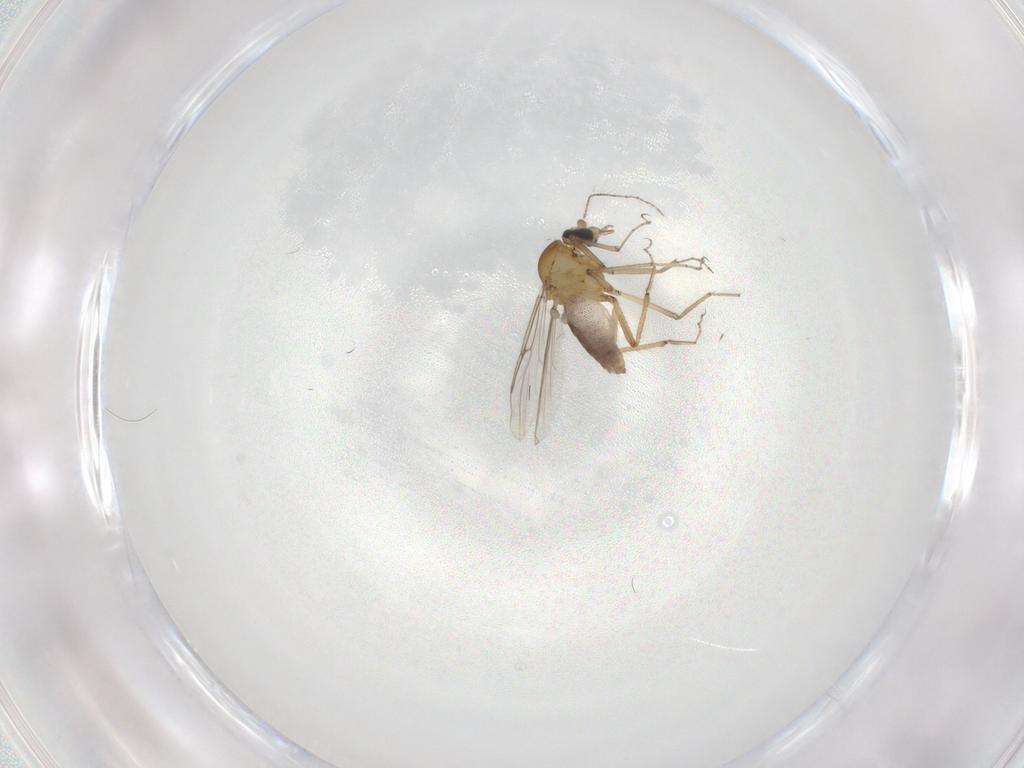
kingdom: Animalia
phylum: Arthropoda
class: Insecta
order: Diptera
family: Ceratopogonidae
